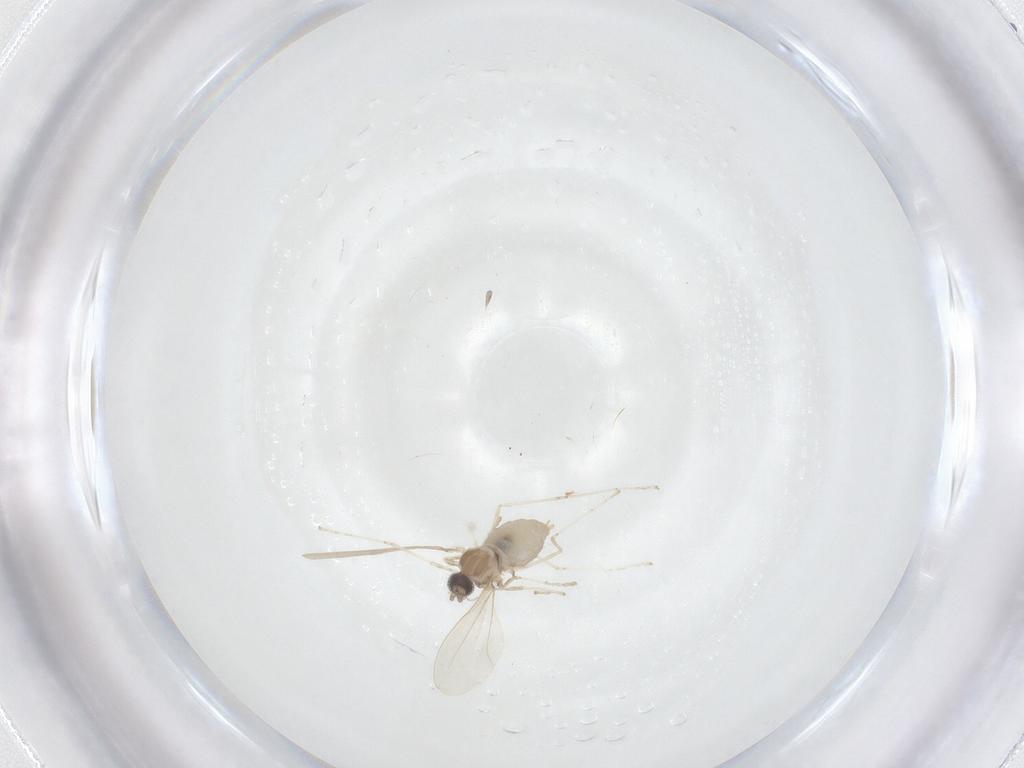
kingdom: Animalia
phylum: Arthropoda
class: Insecta
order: Diptera
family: Cecidomyiidae
